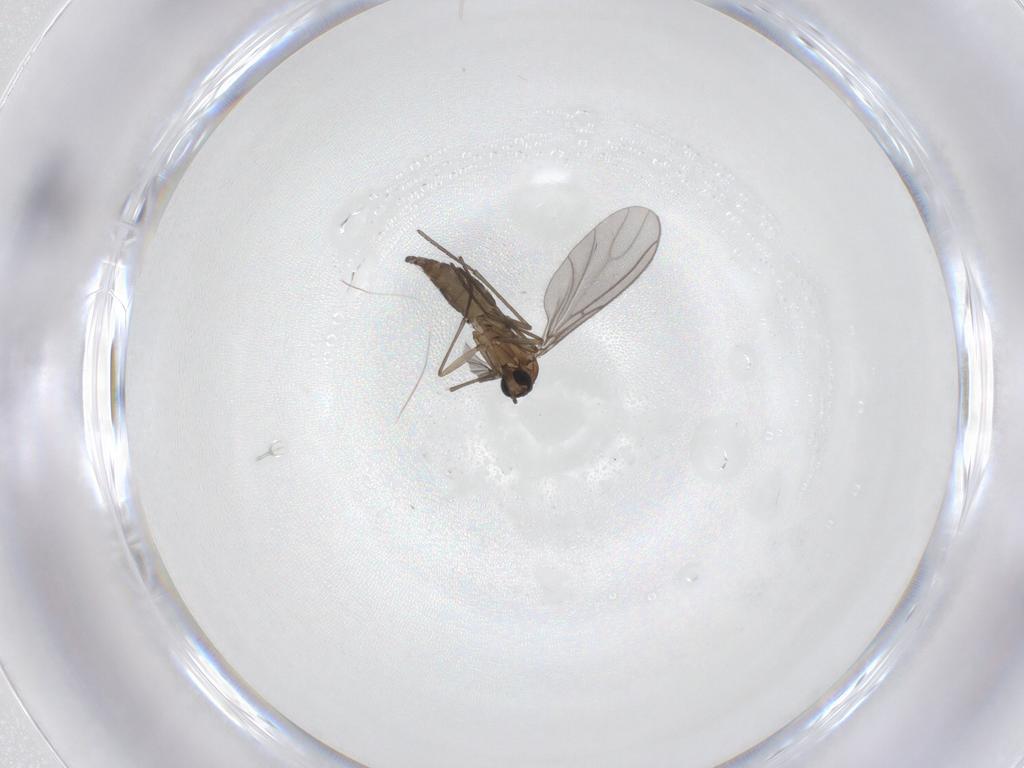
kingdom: Animalia
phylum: Arthropoda
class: Insecta
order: Diptera
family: Sciaridae
